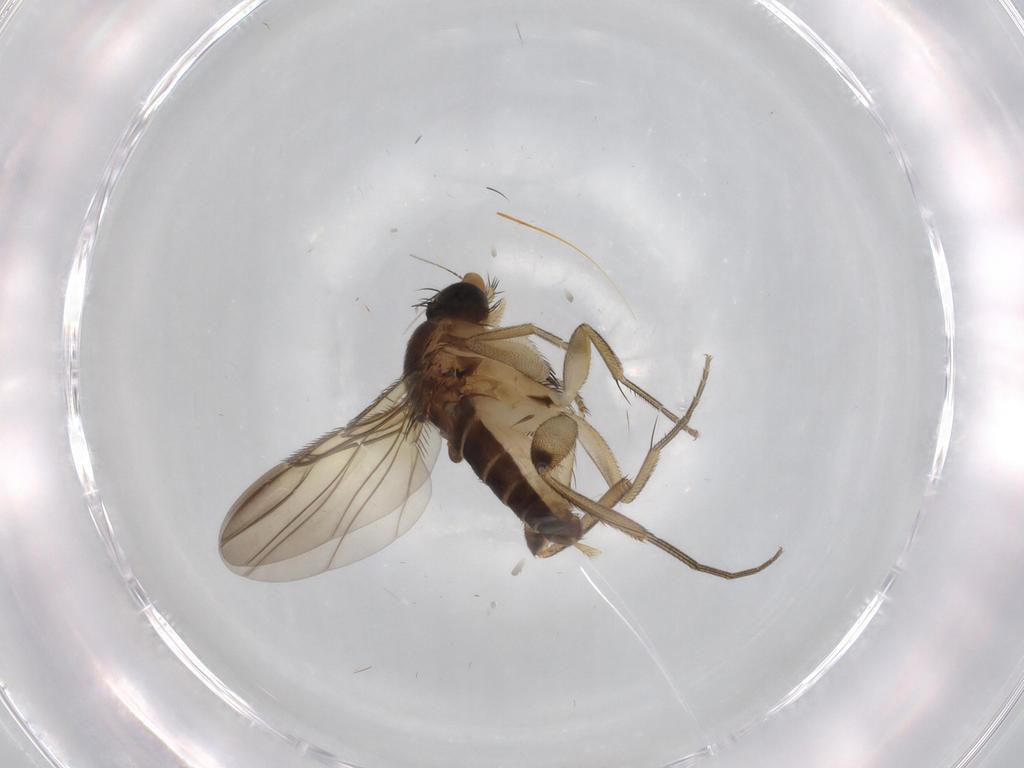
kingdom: Animalia
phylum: Arthropoda
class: Insecta
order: Diptera
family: Phoridae
